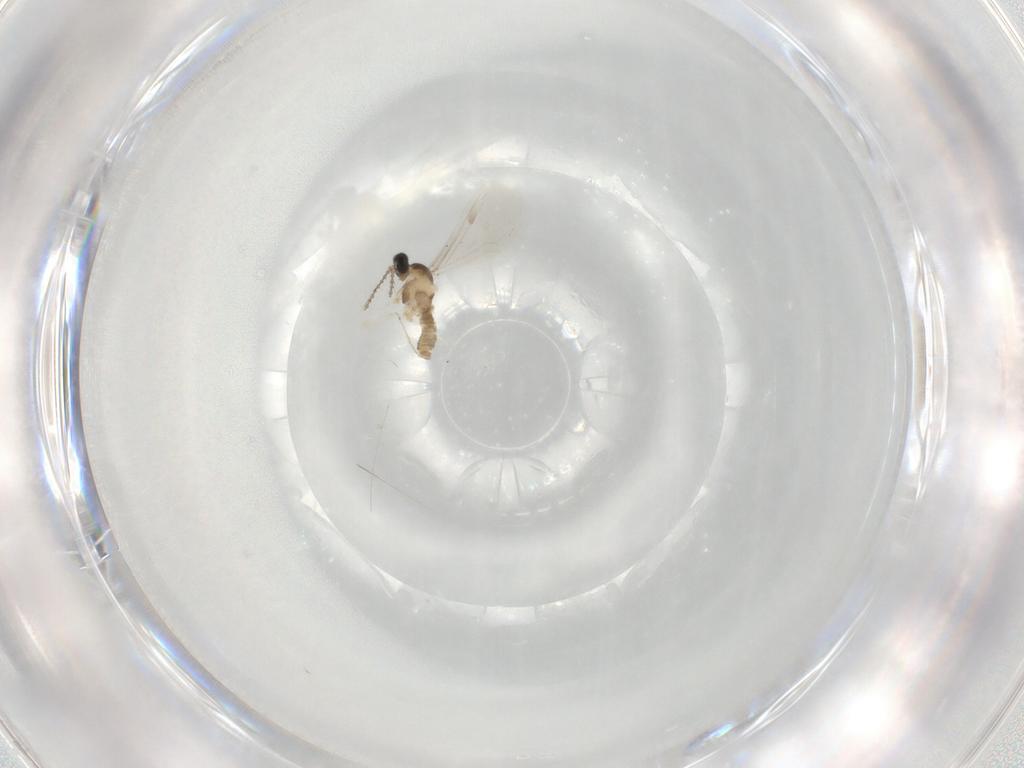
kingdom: Animalia
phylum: Arthropoda
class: Insecta
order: Diptera
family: Cecidomyiidae
